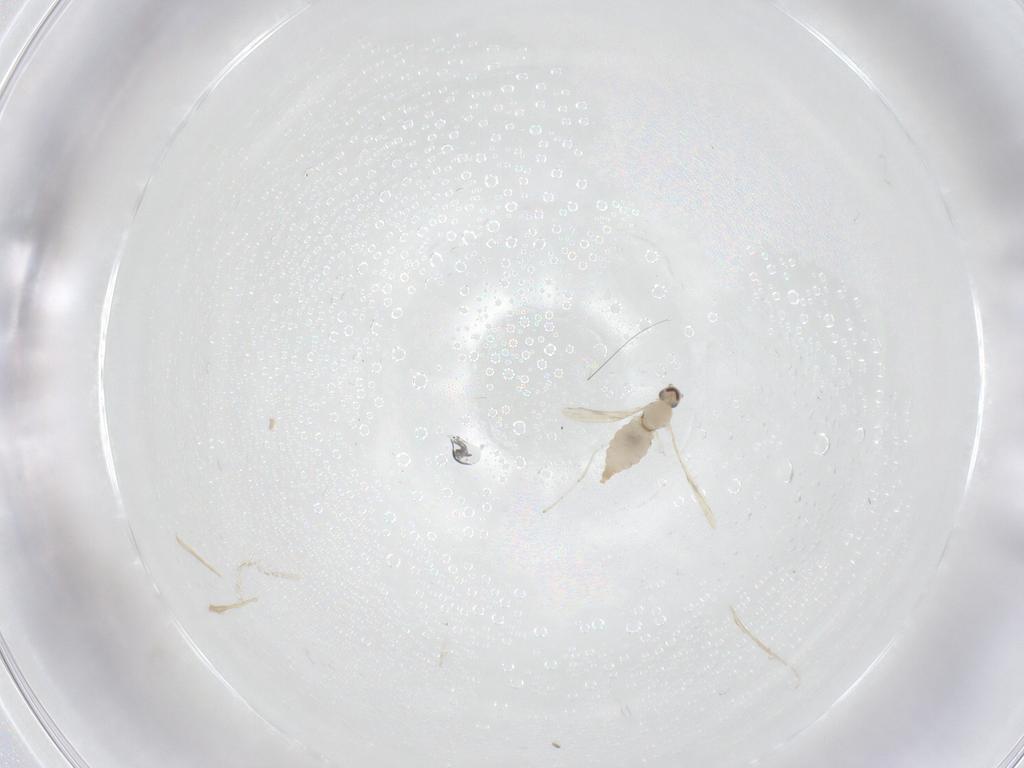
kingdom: Animalia
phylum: Arthropoda
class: Insecta
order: Diptera
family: Cecidomyiidae
